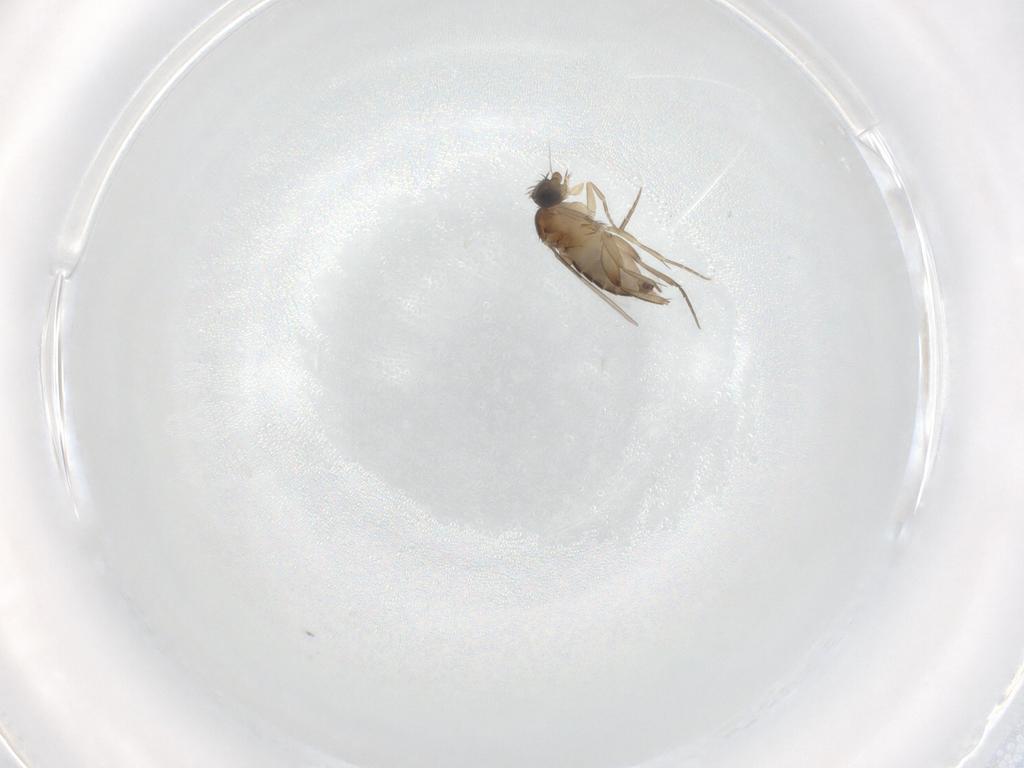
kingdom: Animalia
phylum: Arthropoda
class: Insecta
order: Diptera
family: Phoridae
